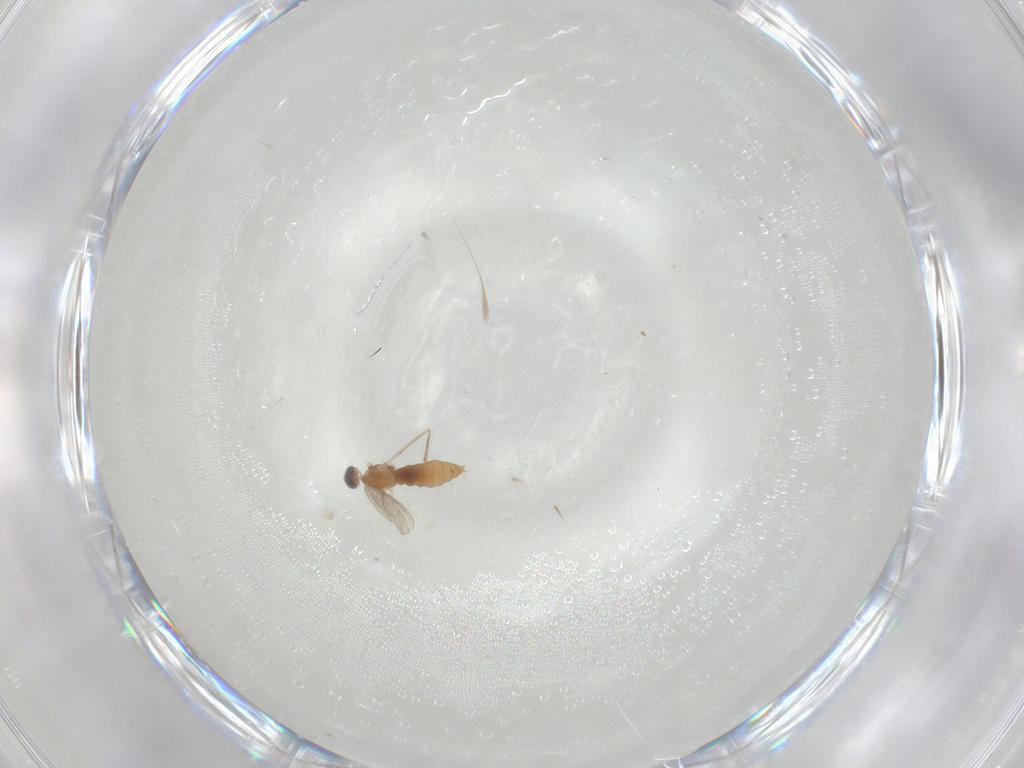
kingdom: Animalia
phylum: Arthropoda
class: Insecta
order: Diptera
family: Cecidomyiidae
